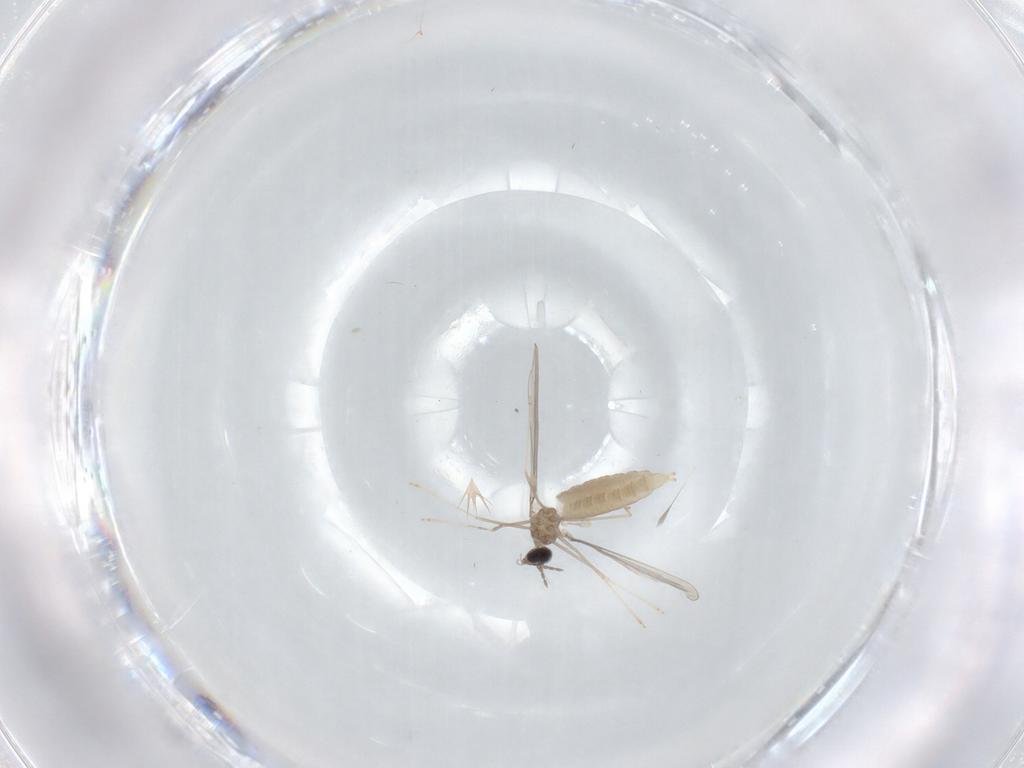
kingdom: Animalia
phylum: Arthropoda
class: Insecta
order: Diptera
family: Cecidomyiidae
